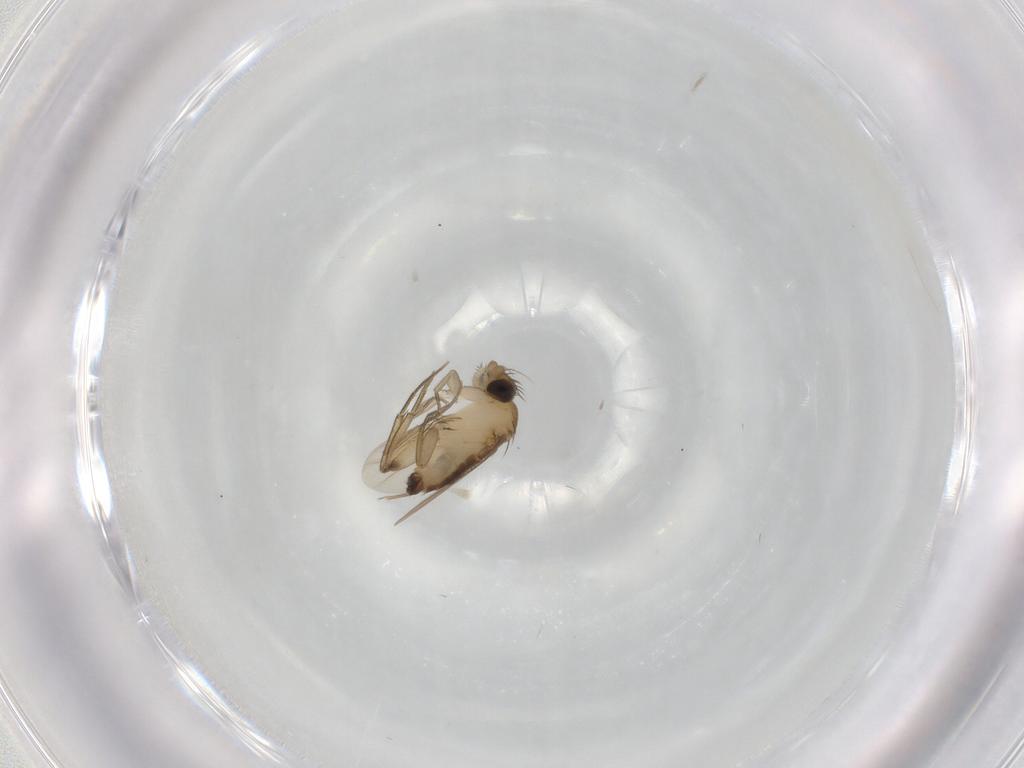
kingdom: Animalia
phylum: Arthropoda
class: Insecta
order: Diptera
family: Phoridae
